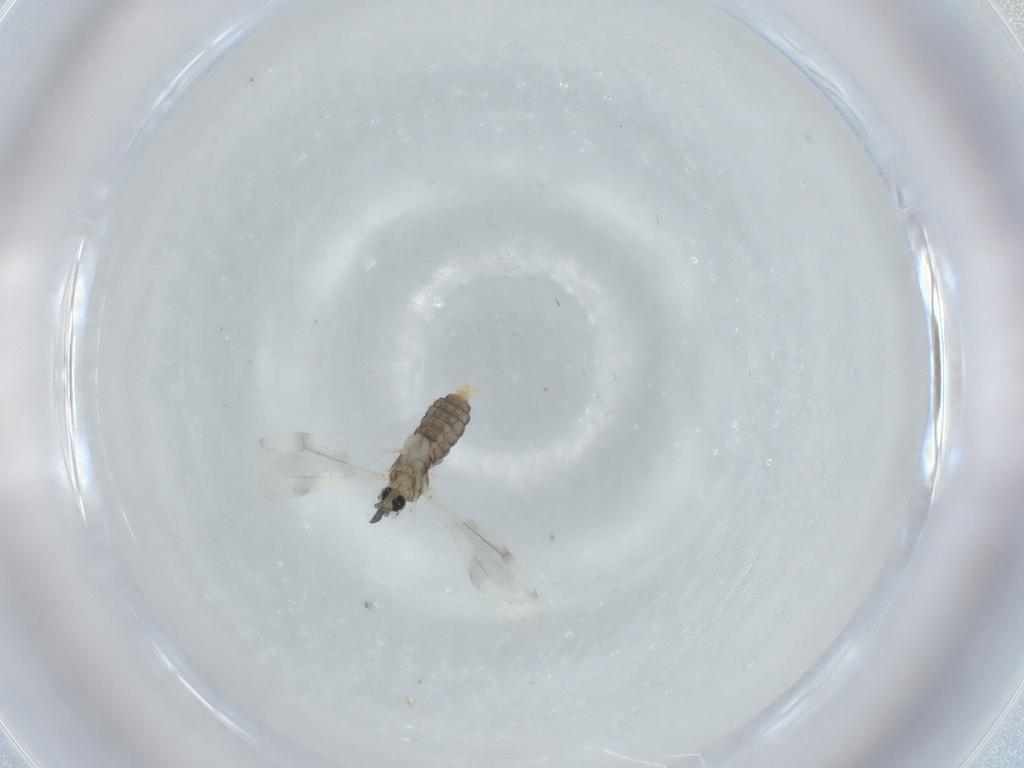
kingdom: Animalia
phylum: Arthropoda
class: Insecta
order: Diptera
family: Cecidomyiidae
